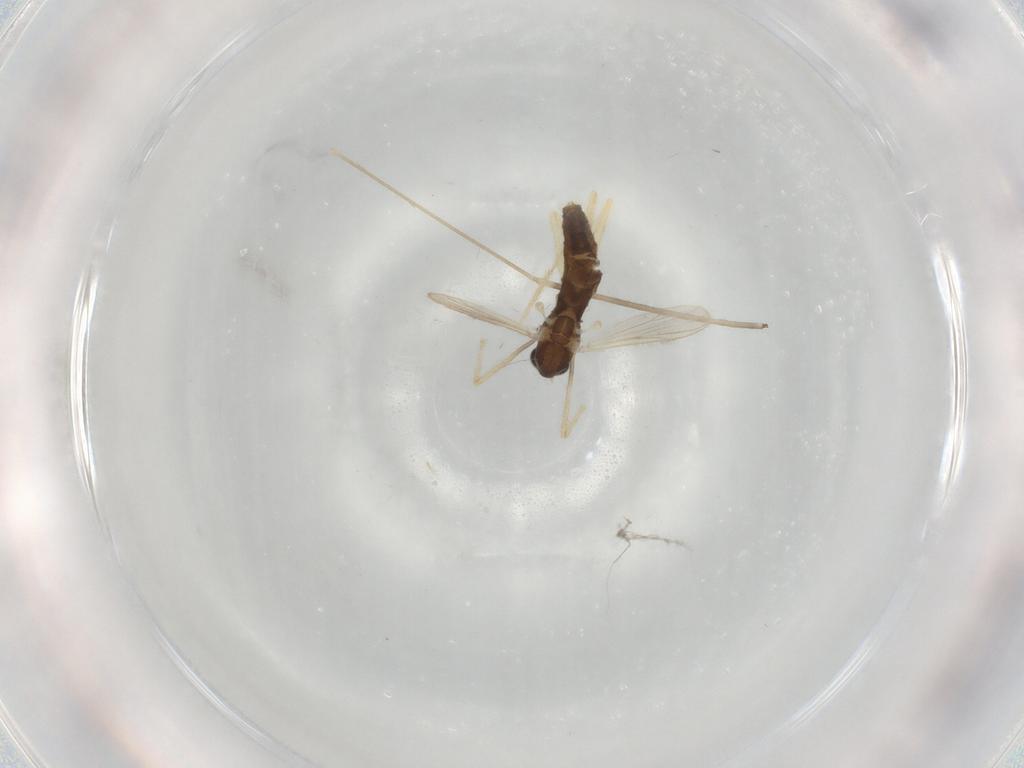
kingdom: Animalia
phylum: Arthropoda
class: Insecta
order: Diptera
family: Chironomidae
